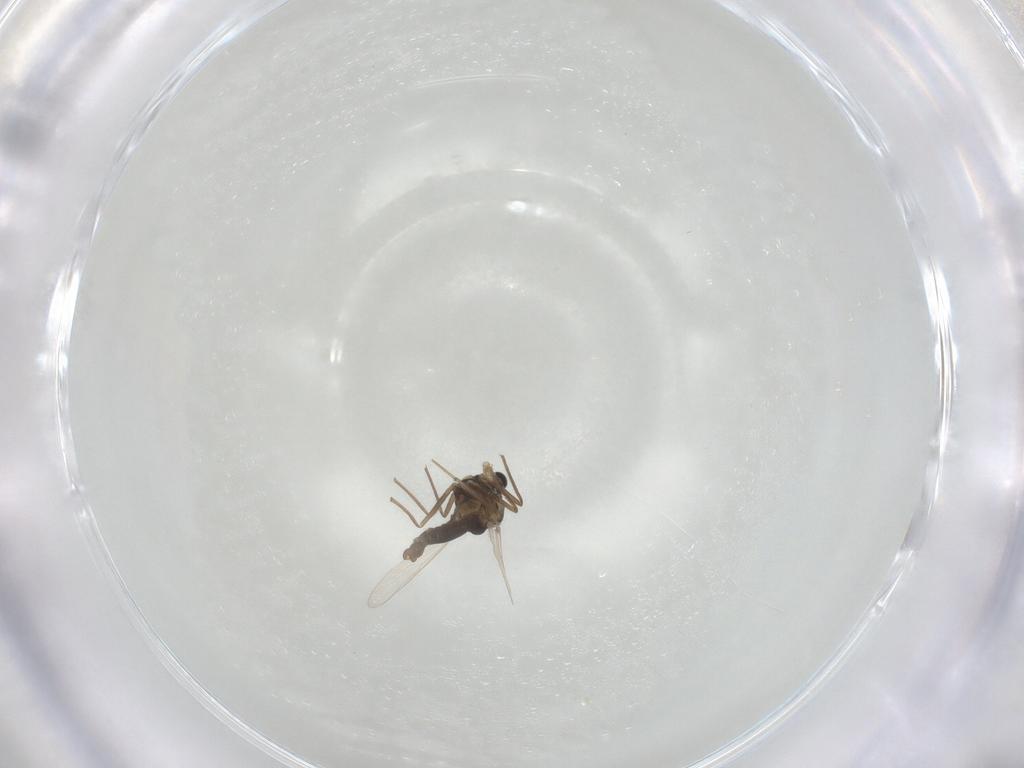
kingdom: Animalia
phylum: Arthropoda
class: Insecta
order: Diptera
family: Chironomidae
